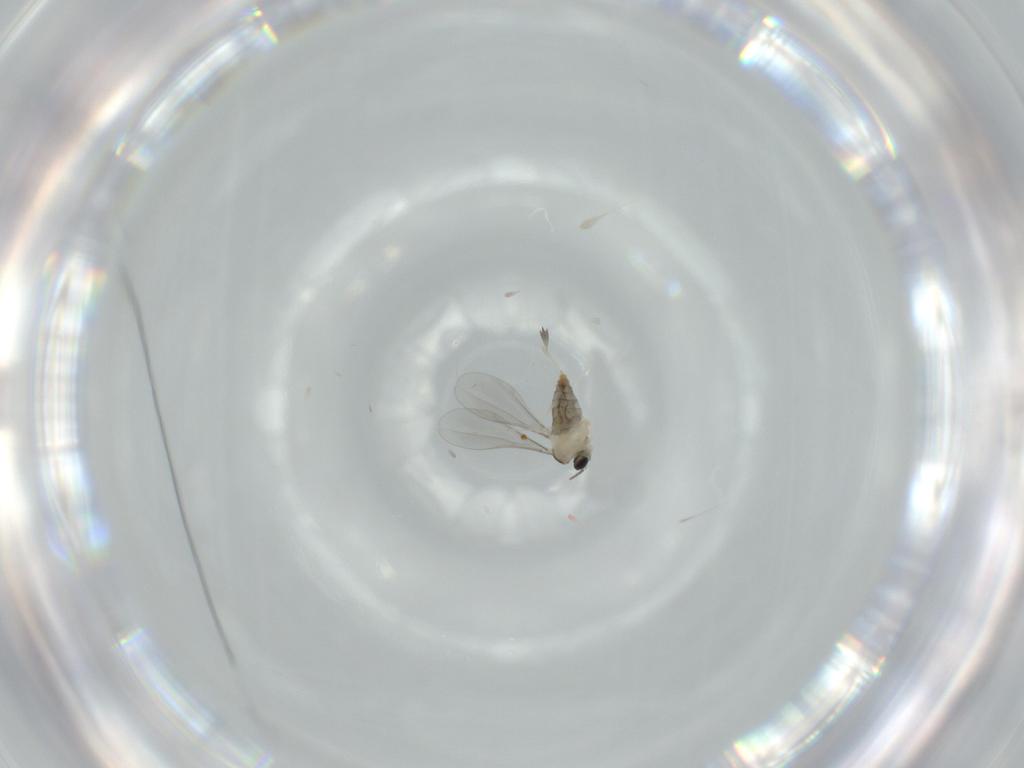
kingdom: Animalia
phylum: Arthropoda
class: Insecta
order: Diptera
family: Cecidomyiidae
